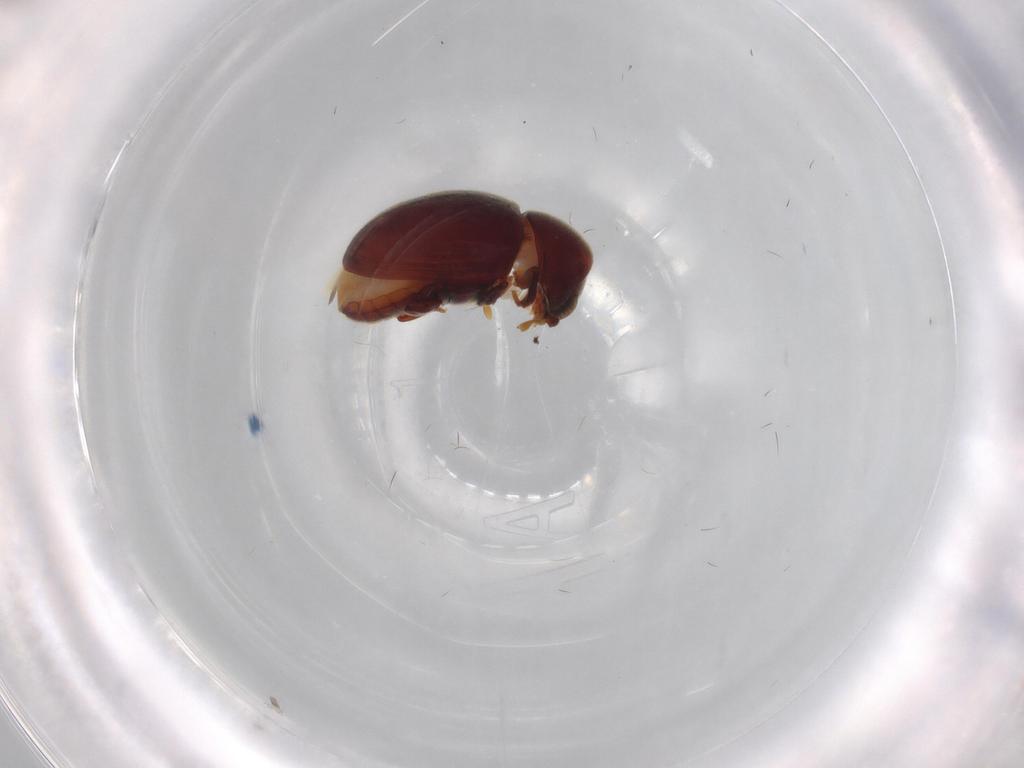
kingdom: Animalia
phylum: Arthropoda
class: Insecta
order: Coleoptera
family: Ptinidae
